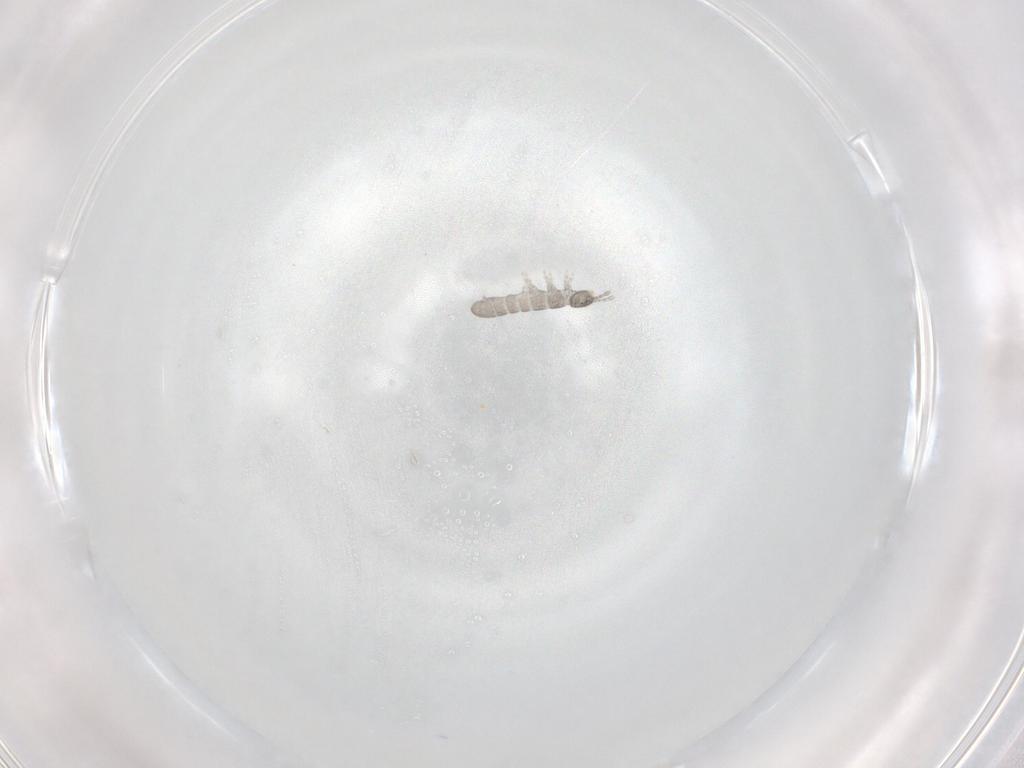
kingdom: Animalia
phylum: Arthropoda
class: Collembola
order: Entomobryomorpha
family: Isotomidae
